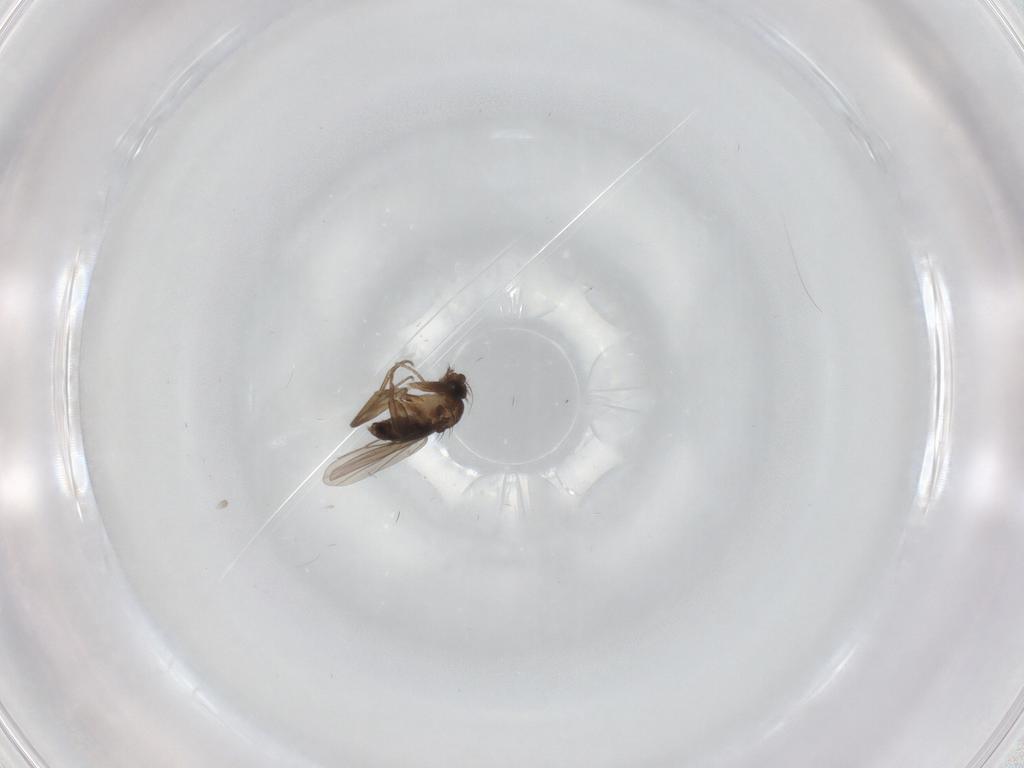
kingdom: Animalia
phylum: Arthropoda
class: Insecta
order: Diptera
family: Phoridae
